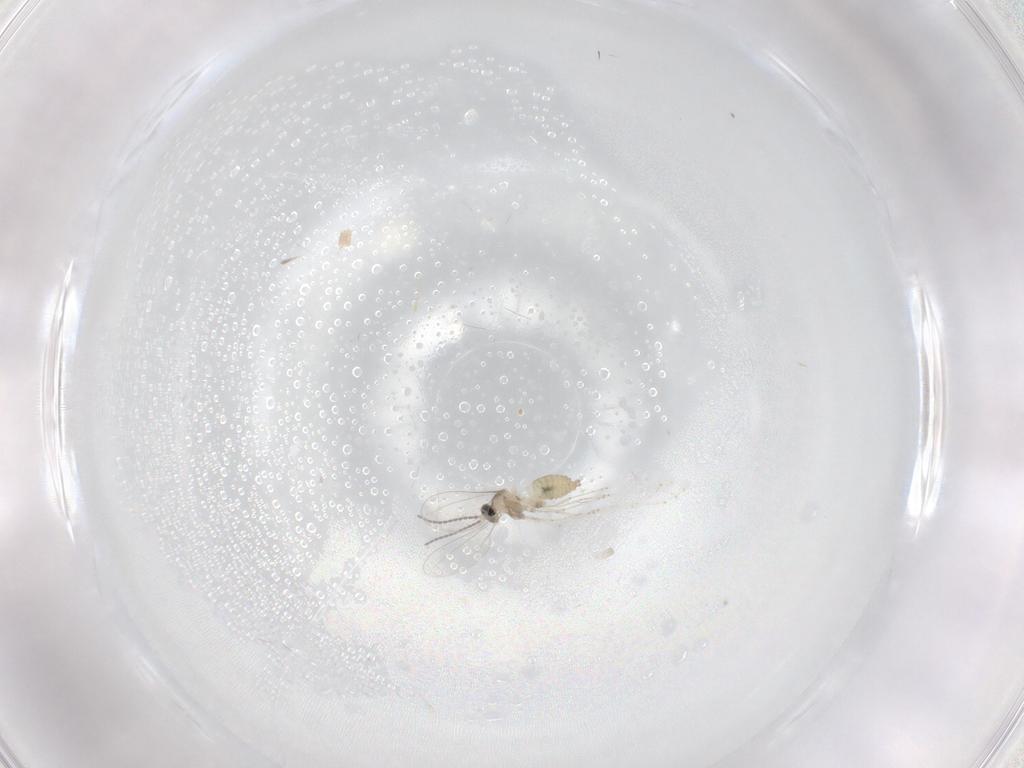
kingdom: Animalia
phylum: Arthropoda
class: Insecta
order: Diptera
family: Cecidomyiidae
